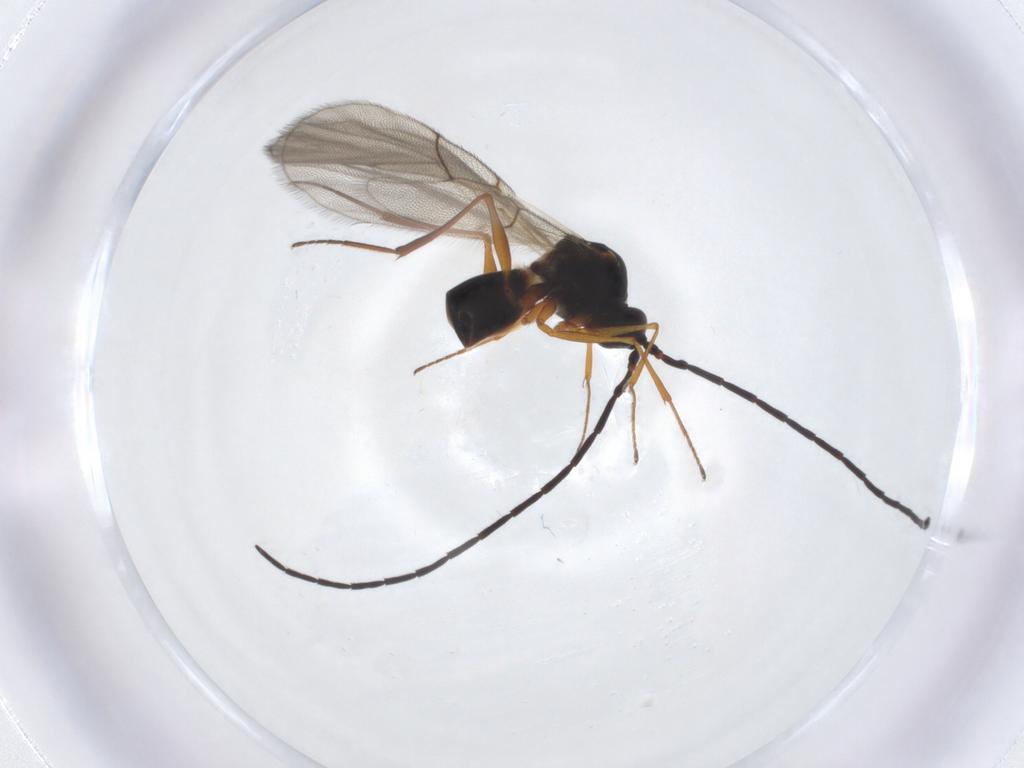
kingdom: Animalia
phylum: Arthropoda
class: Insecta
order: Hymenoptera
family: Figitidae
